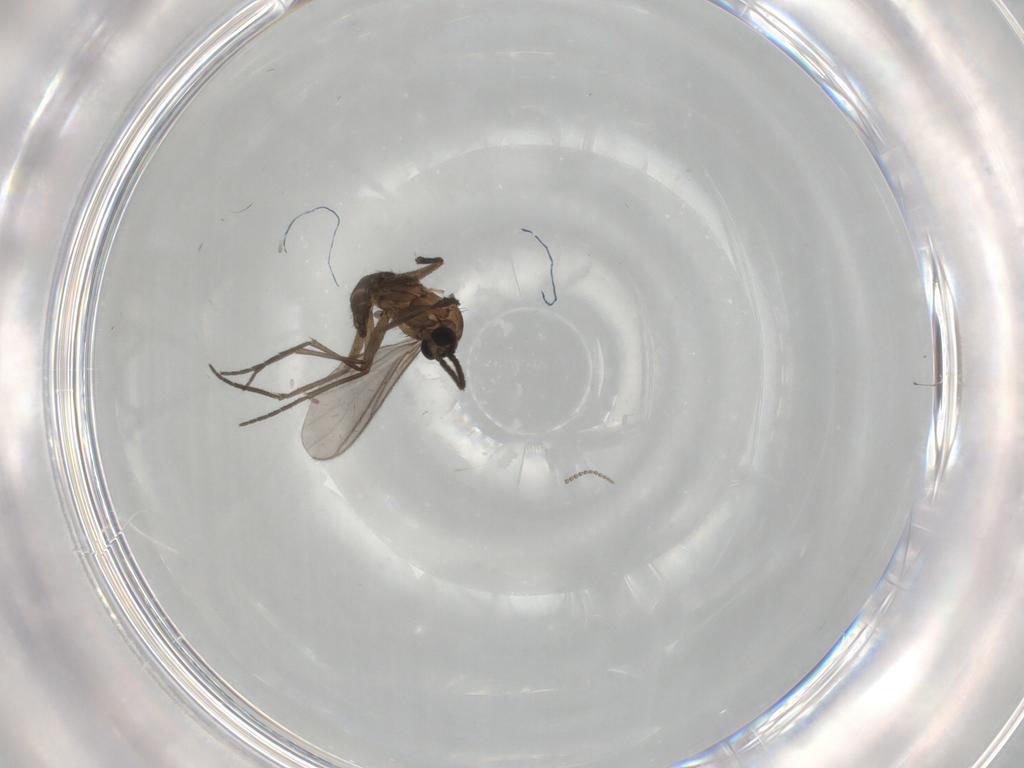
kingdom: Animalia
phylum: Arthropoda
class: Insecta
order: Diptera
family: Sciaridae
